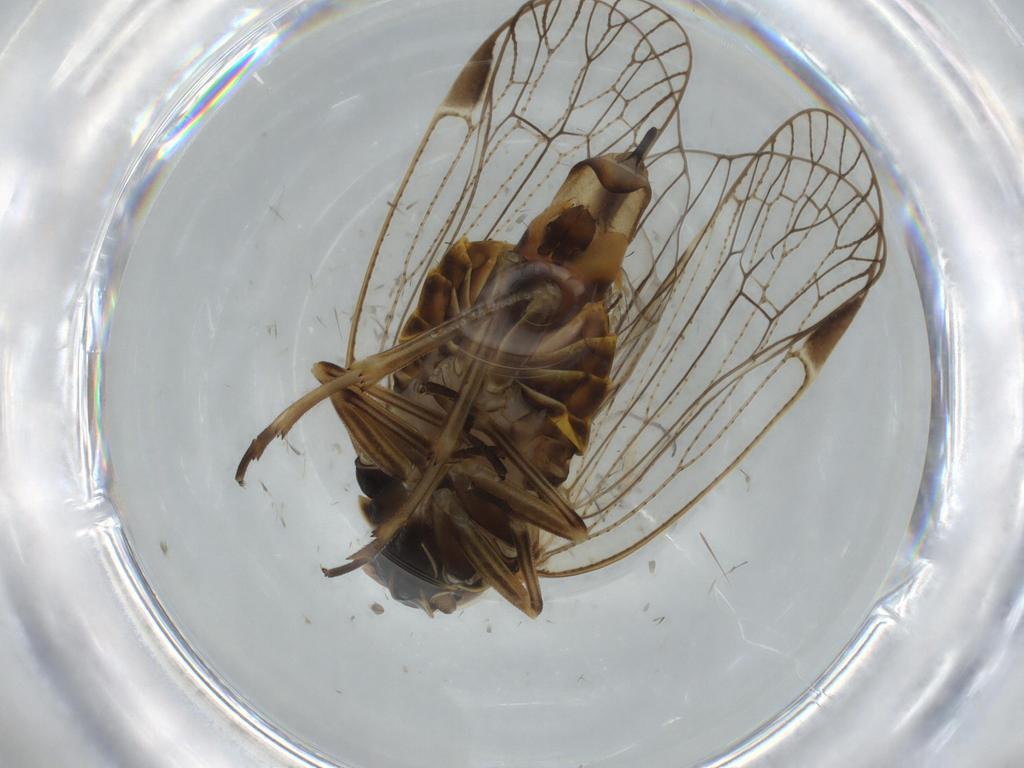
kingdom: Animalia
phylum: Arthropoda
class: Insecta
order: Hemiptera
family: Cixiidae
